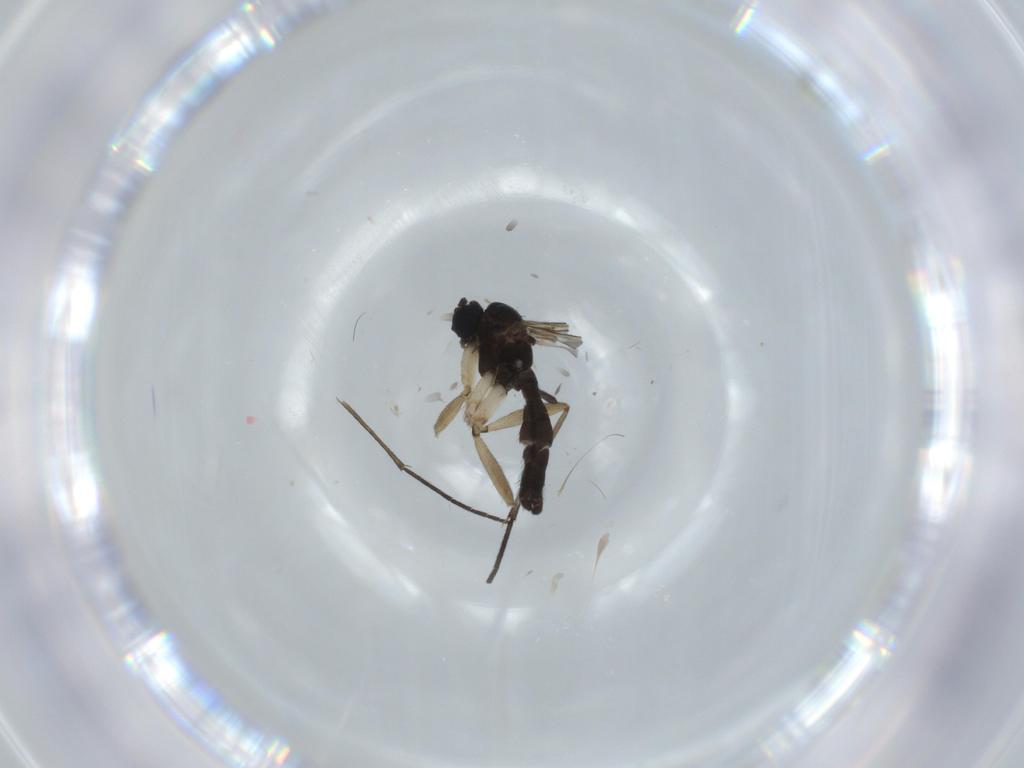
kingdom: Animalia
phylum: Arthropoda
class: Insecta
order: Diptera
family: Sciaridae
